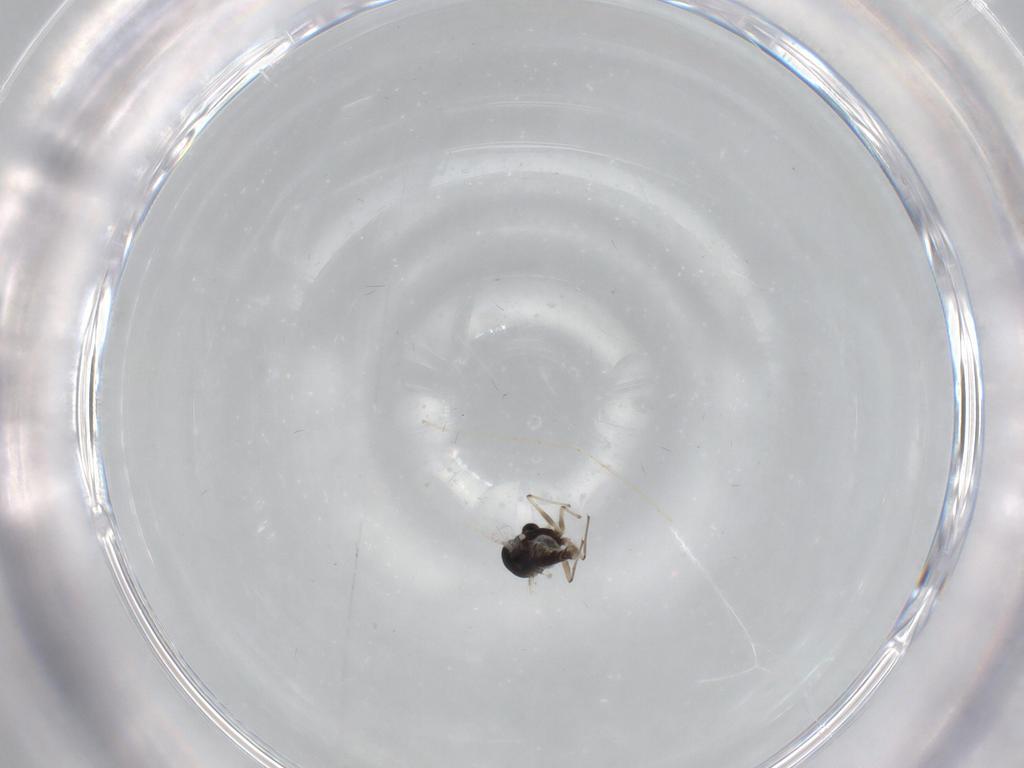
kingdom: Animalia
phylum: Arthropoda
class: Insecta
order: Diptera
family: Chironomidae
